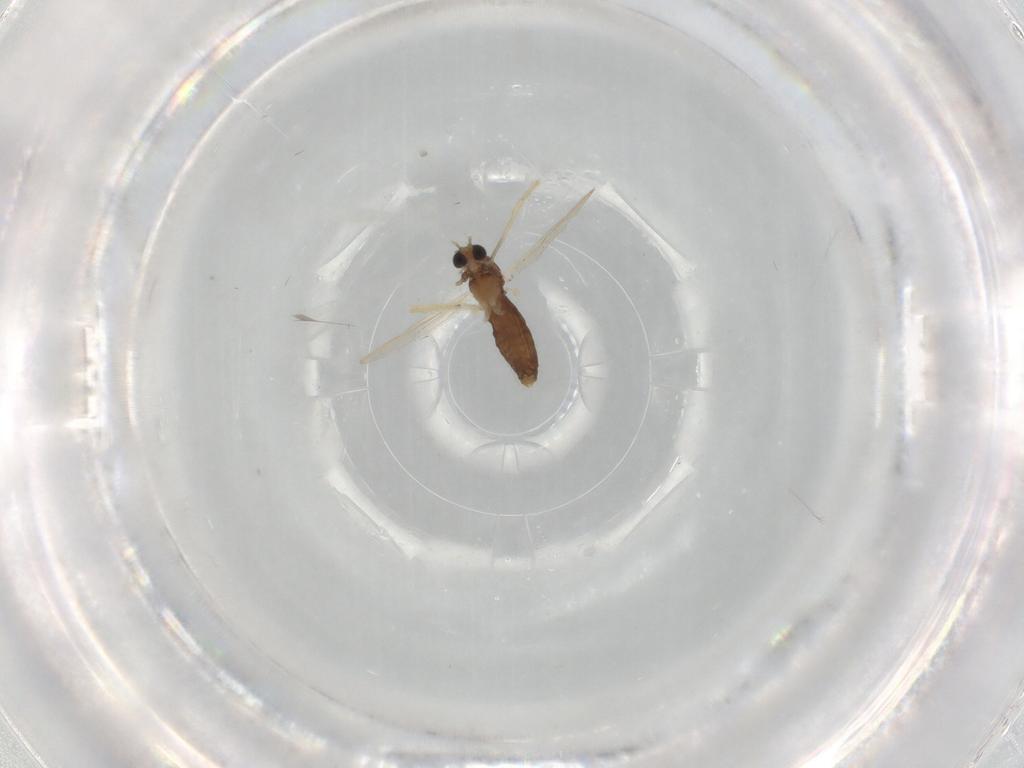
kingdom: Animalia
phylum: Arthropoda
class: Insecta
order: Diptera
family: Chironomidae
